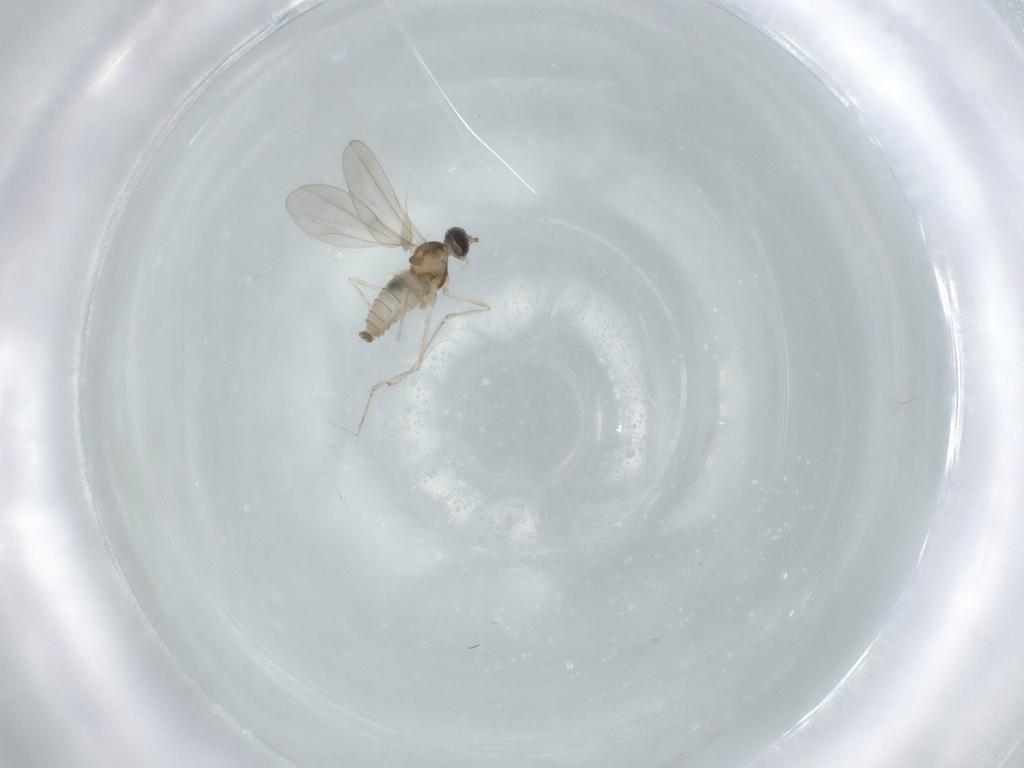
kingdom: Animalia
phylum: Arthropoda
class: Insecta
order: Diptera
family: Cecidomyiidae
